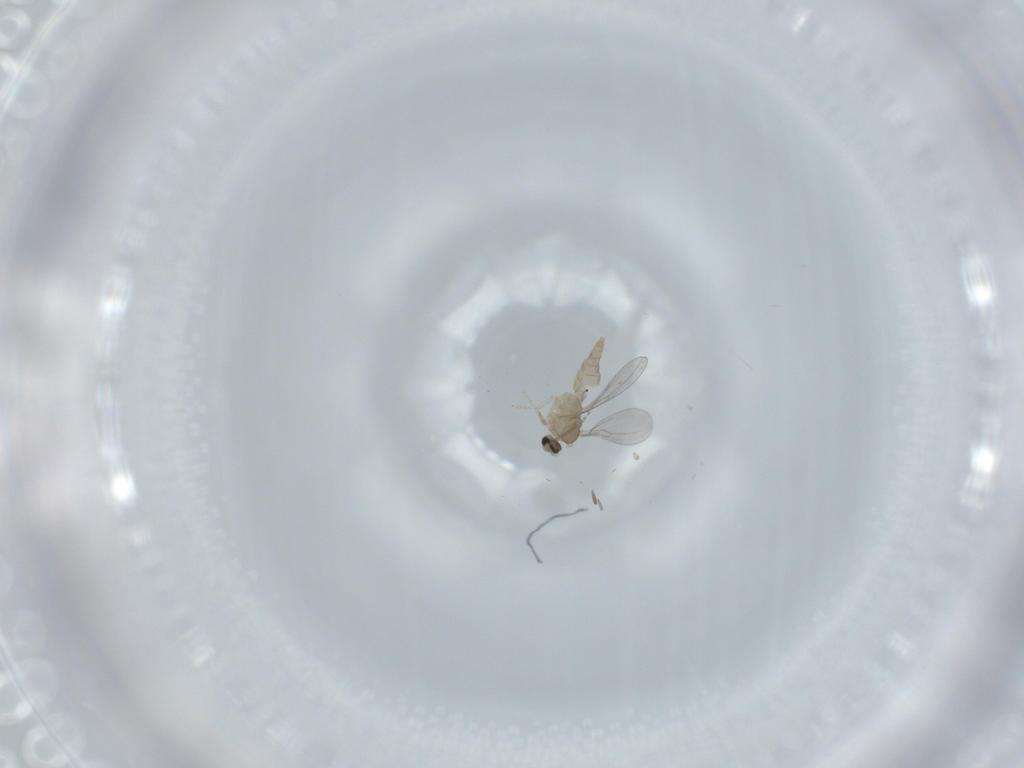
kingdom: Animalia
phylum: Arthropoda
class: Insecta
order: Diptera
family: Cecidomyiidae
